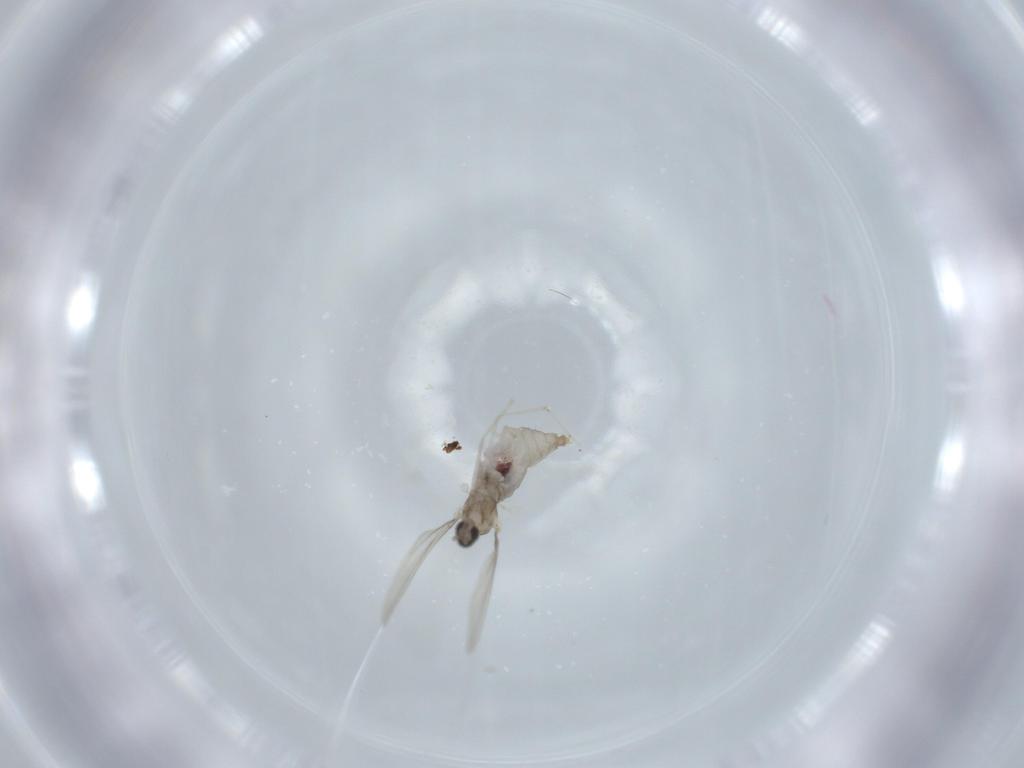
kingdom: Animalia
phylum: Arthropoda
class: Insecta
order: Diptera
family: Cecidomyiidae
